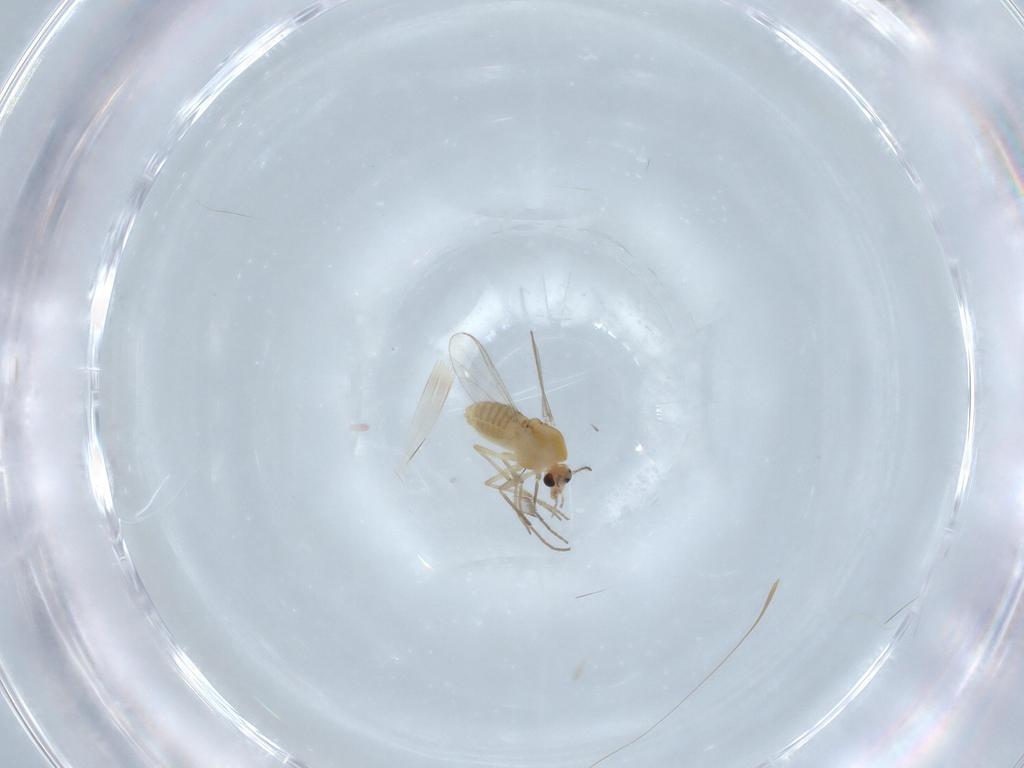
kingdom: Animalia
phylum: Arthropoda
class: Insecta
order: Diptera
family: Chironomidae
